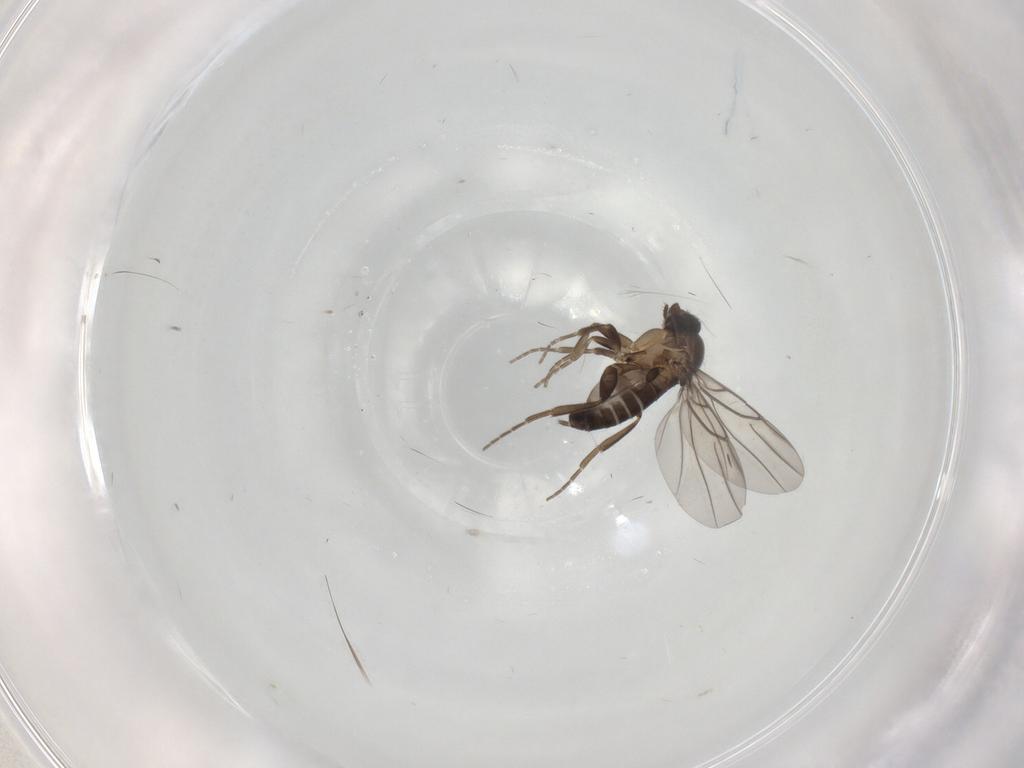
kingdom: Animalia
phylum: Arthropoda
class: Insecta
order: Diptera
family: Phoridae
